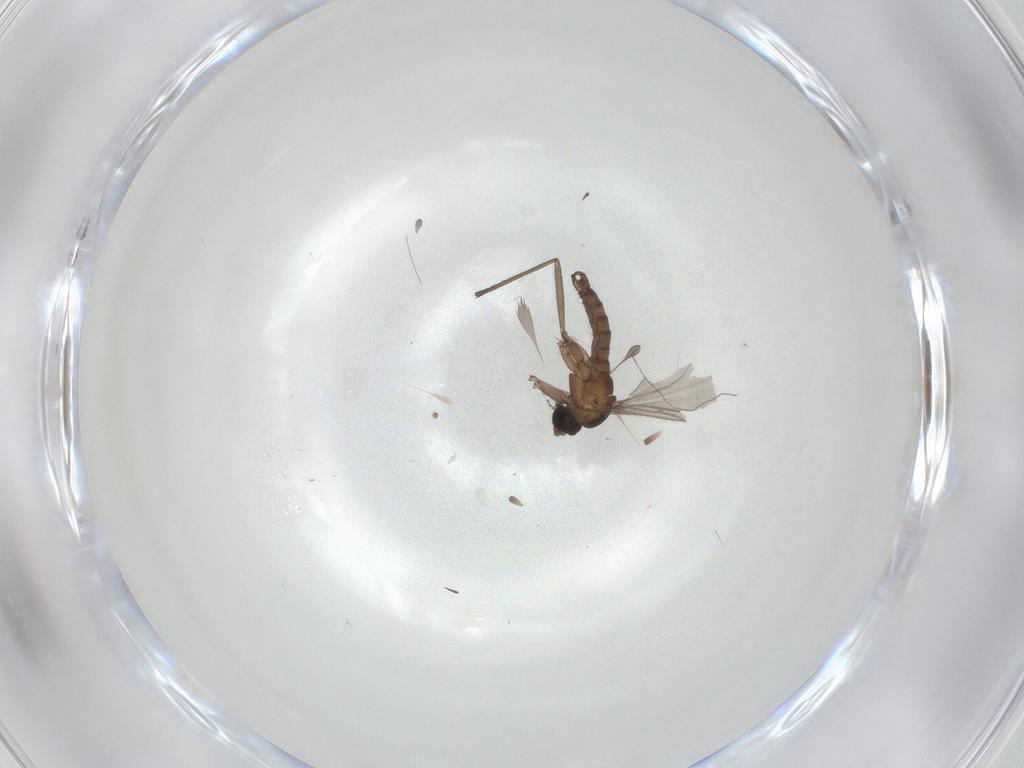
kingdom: Animalia
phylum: Arthropoda
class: Insecta
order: Diptera
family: Sciaridae
